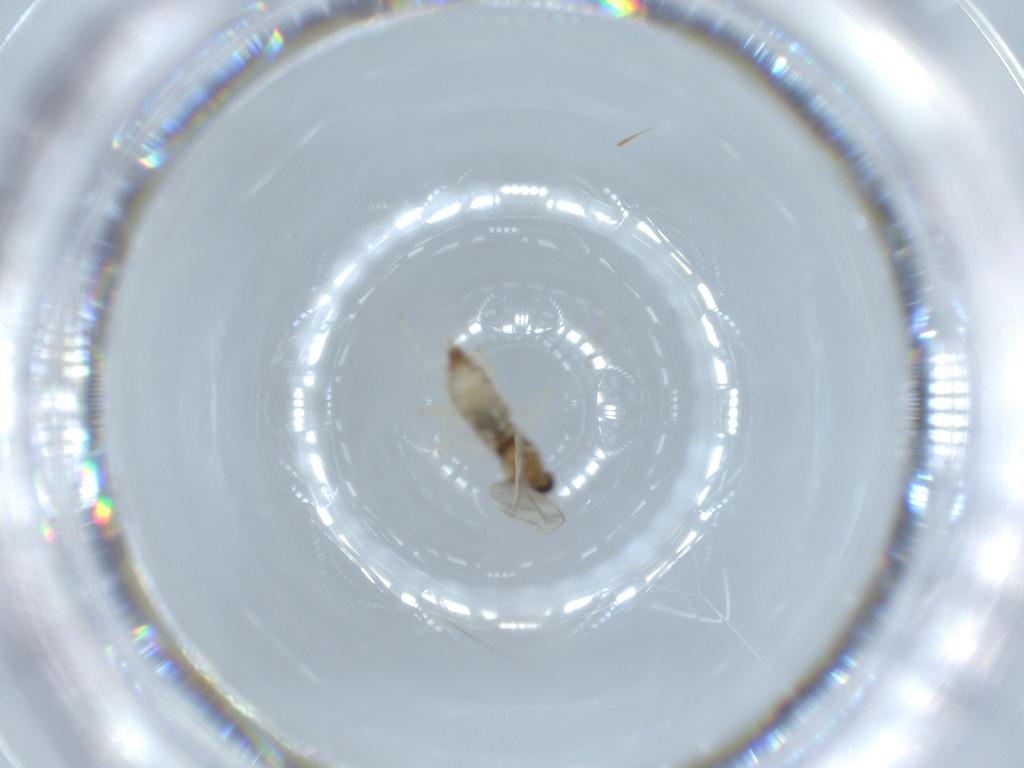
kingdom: Animalia
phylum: Arthropoda
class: Insecta
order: Diptera
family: Cecidomyiidae
